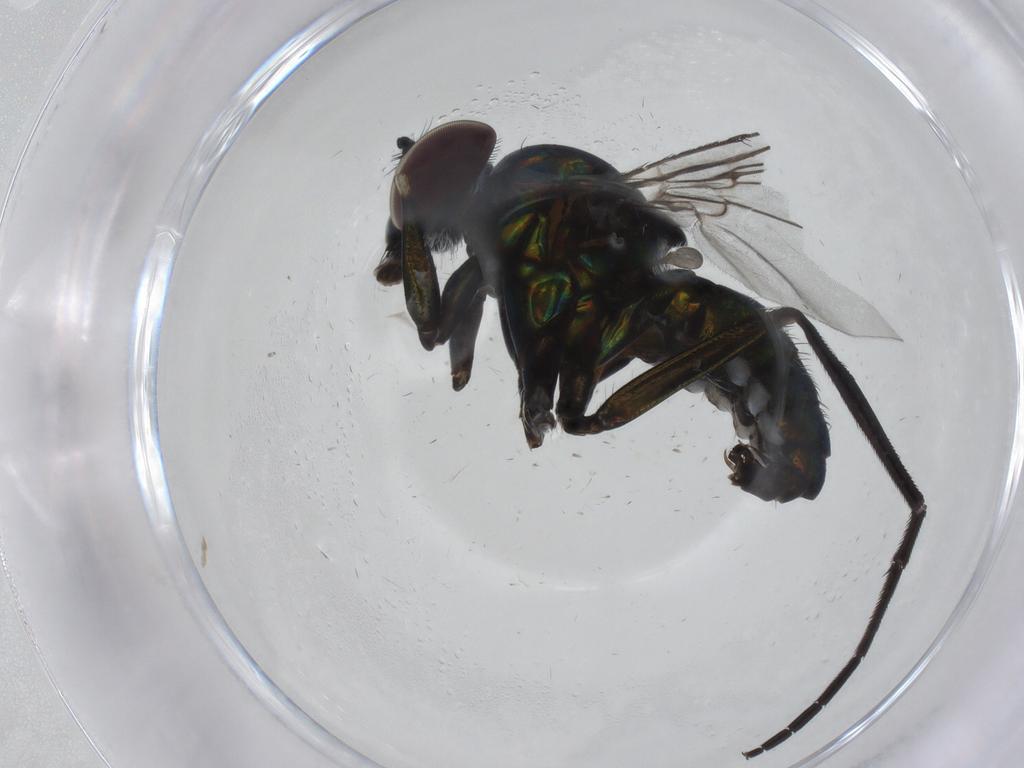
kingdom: Animalia
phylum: Arthropoda
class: Insecta
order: Diptera
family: Dolichopodidae
